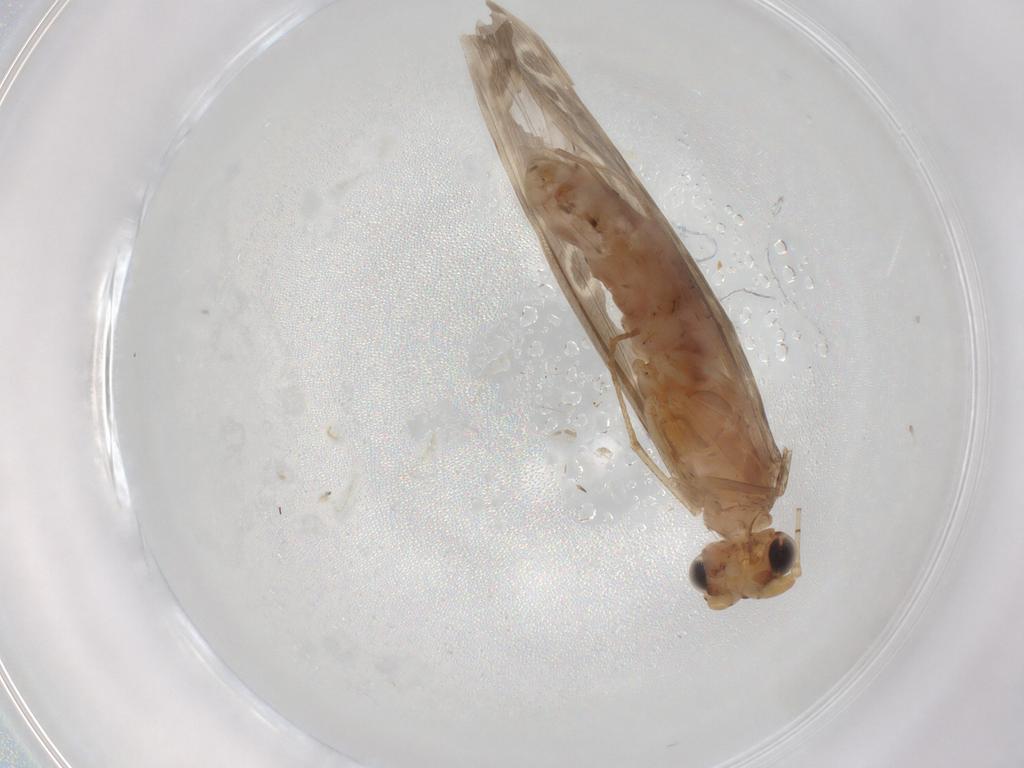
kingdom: Animalia
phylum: Arthropoda
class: Insecta
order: Trichoptera
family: Leptoceridae
